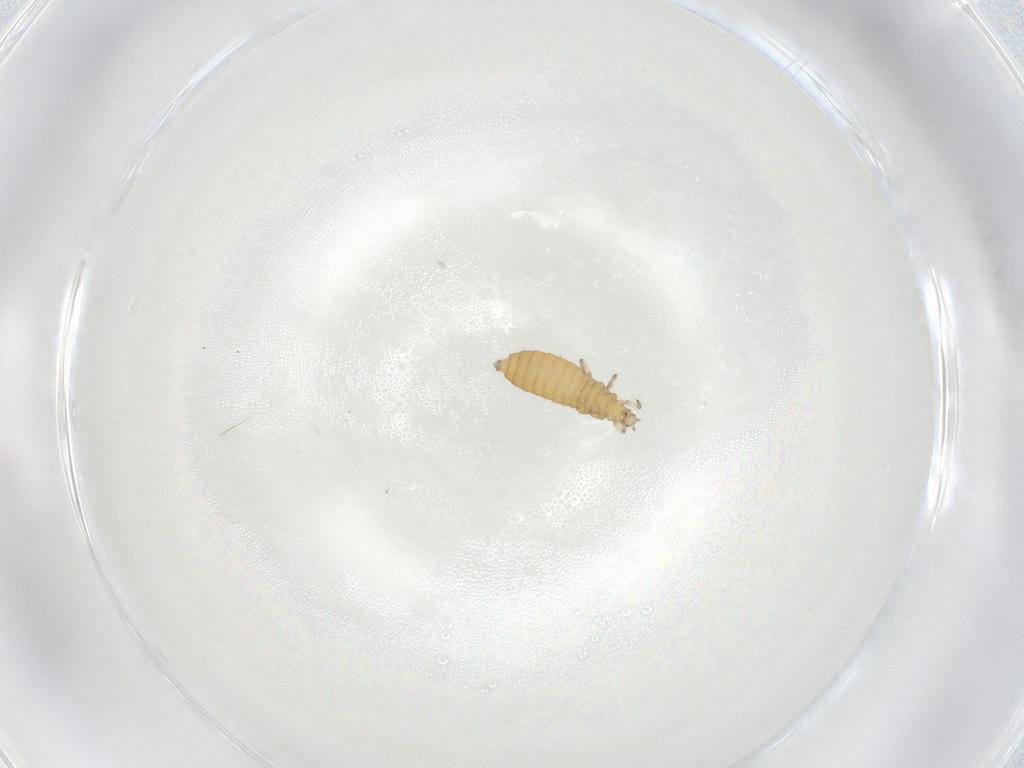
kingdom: Animalia
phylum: Arthropoda
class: Insecta
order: Thysanoptera
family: Aeolothripidae
